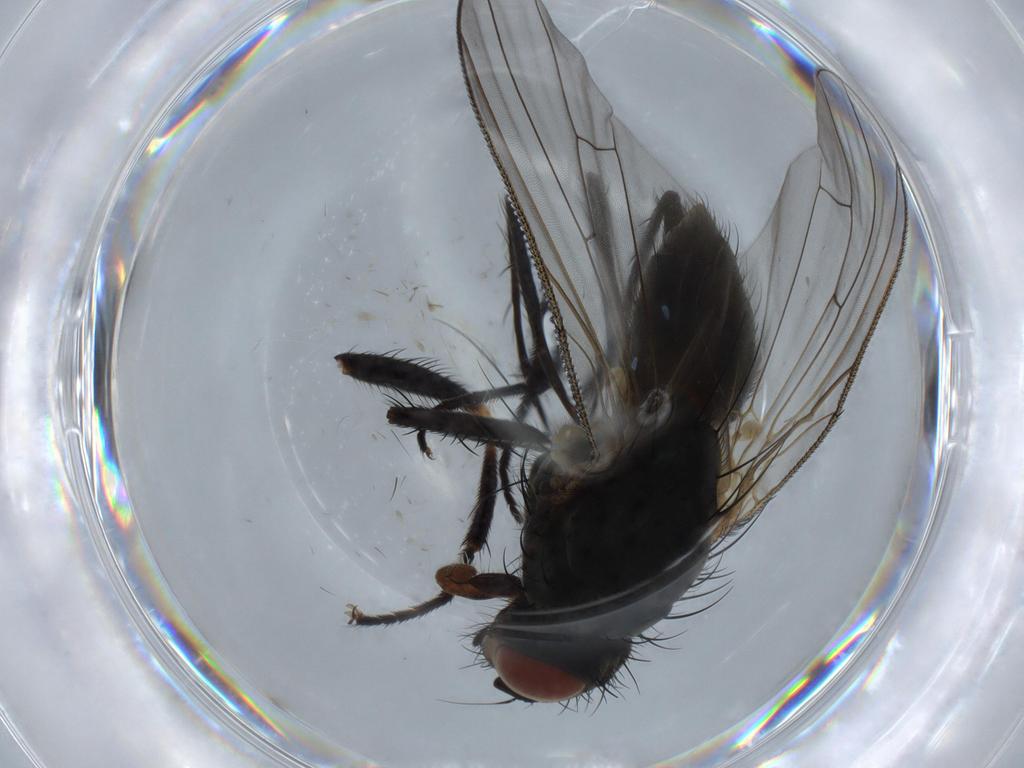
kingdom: Animalia
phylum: Arthropoda
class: Insecta
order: Diptera
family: Anthomyiidae
